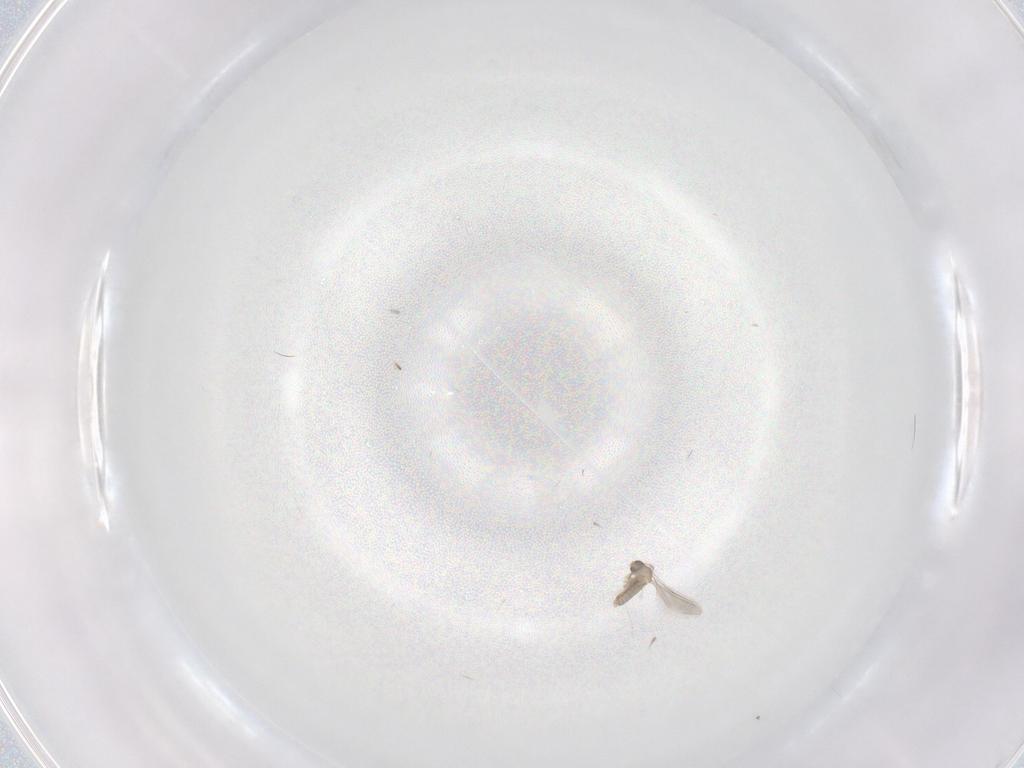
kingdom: Animalia
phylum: Arthropoda
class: Insecta
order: Diptera
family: Cecidomyiidae
